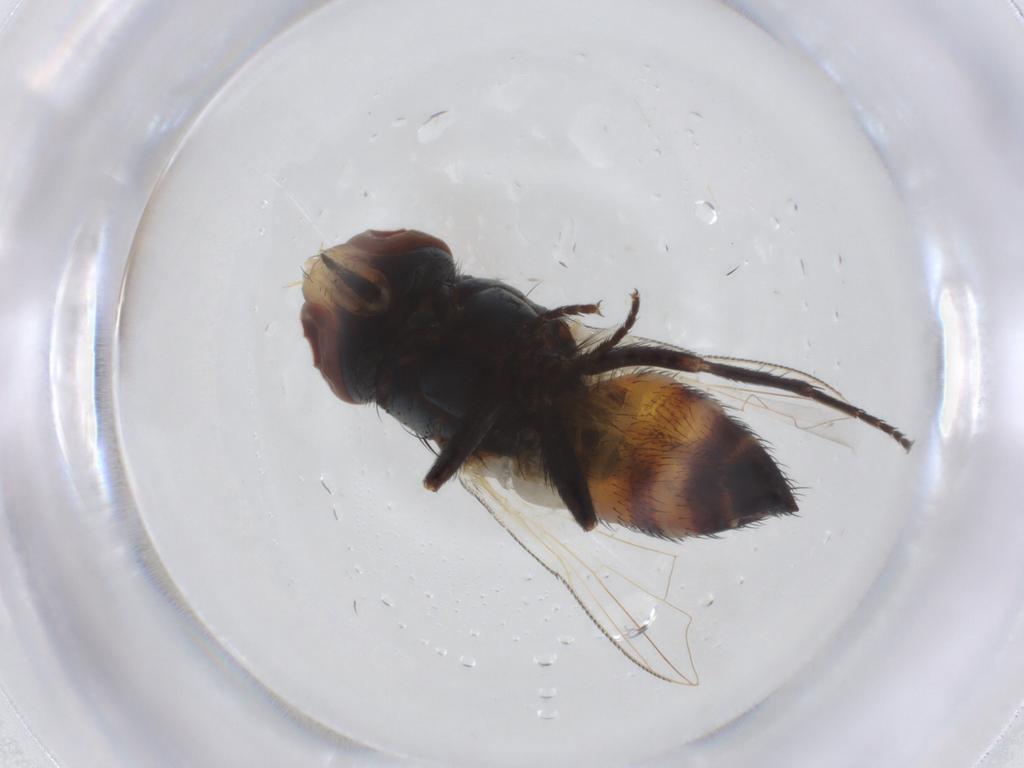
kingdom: Animalia
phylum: Arthropoda
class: Insecta
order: Diptera
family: Sarcophagidae
